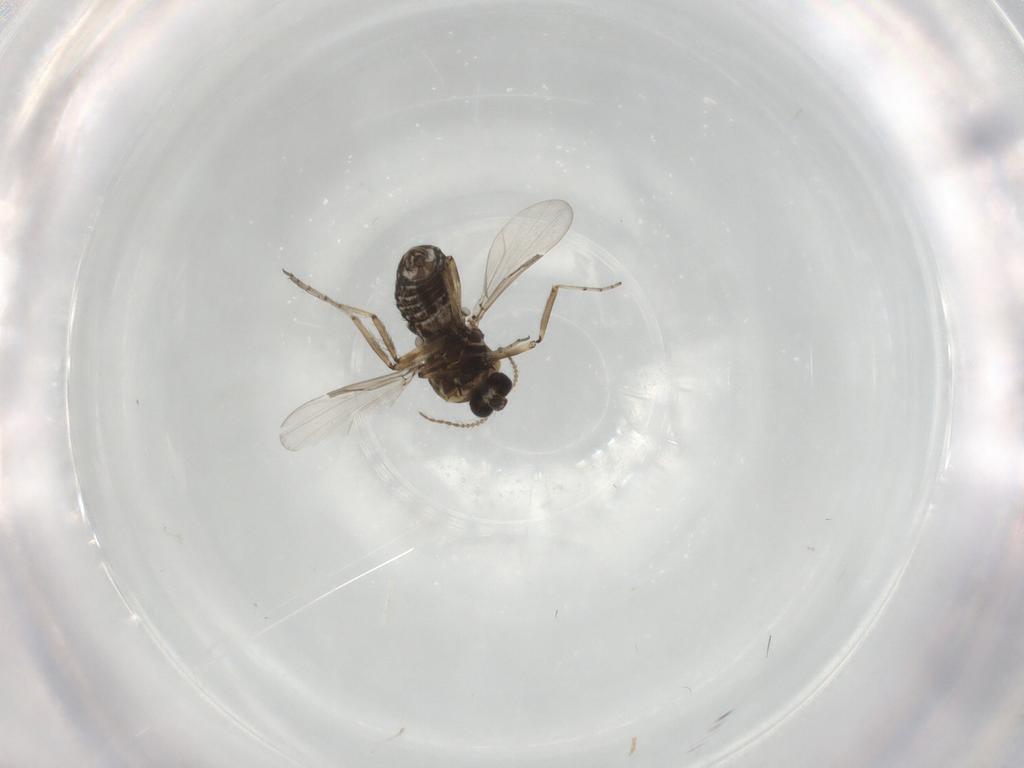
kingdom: Animalia
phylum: Arthropoda
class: Insecta
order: Diptera
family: Ceratopogonidae
